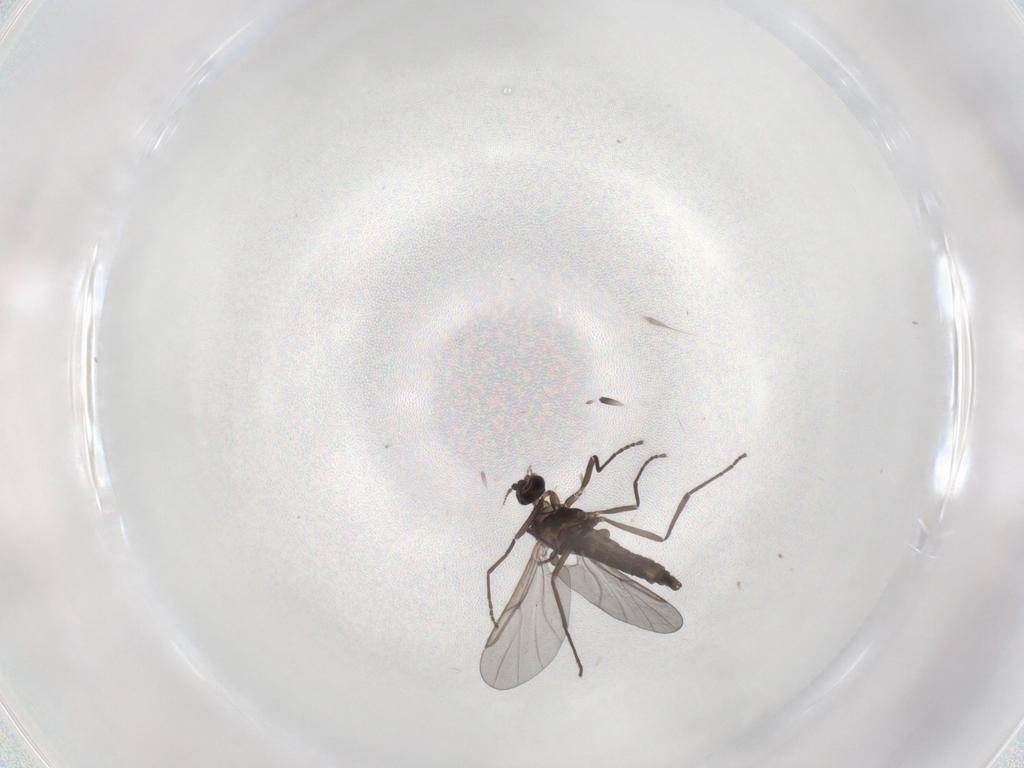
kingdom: Animalia
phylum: Arthropoda
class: Insecta
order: Diptera
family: Cecidomyiidae
